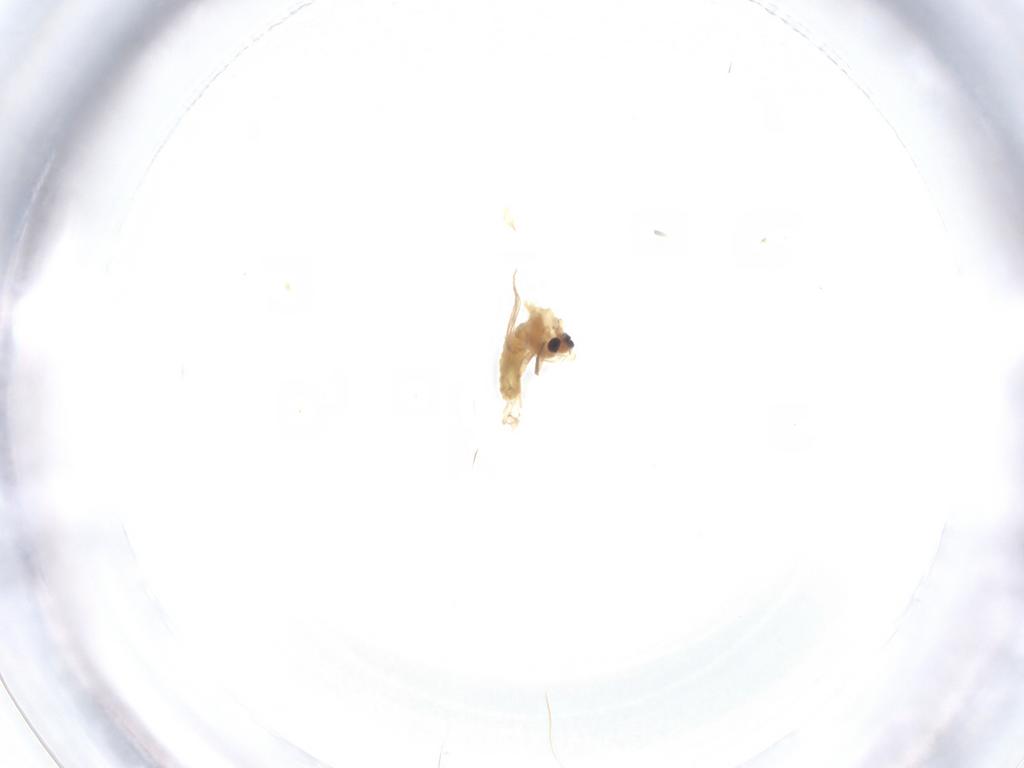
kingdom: Animalia
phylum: Arthropoda
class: Insecta
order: Diptera
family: Chironomidae
